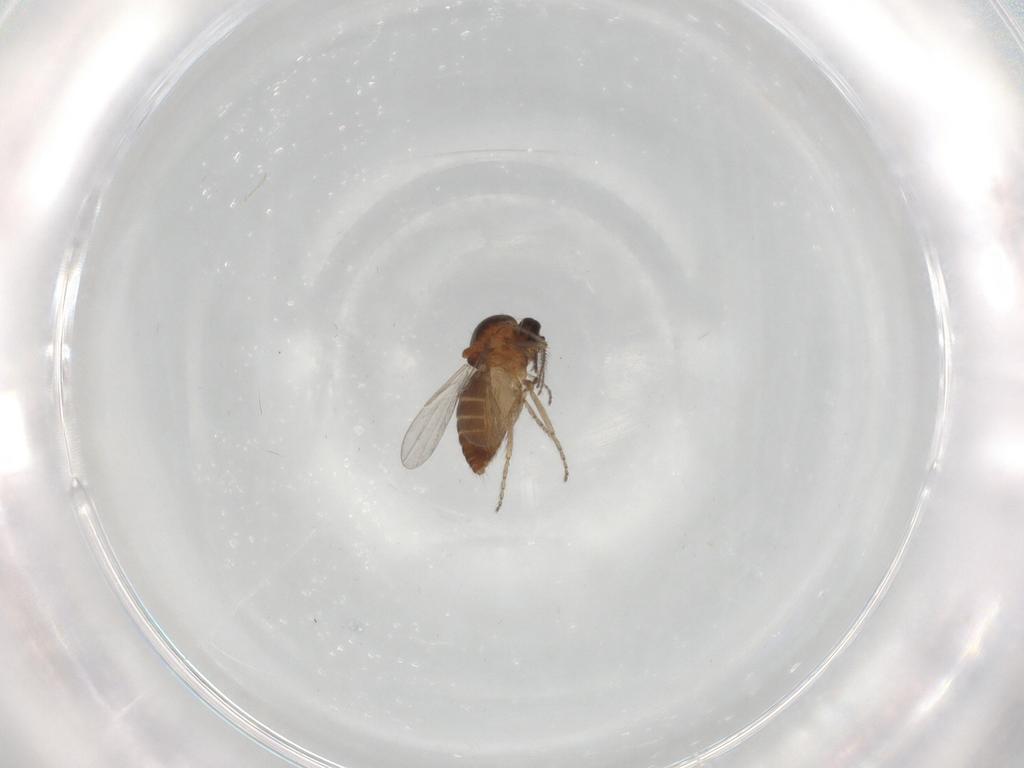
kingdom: Animalia
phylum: Arthropoda
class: Insecta
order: Diptera
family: Ceratopogonidae
